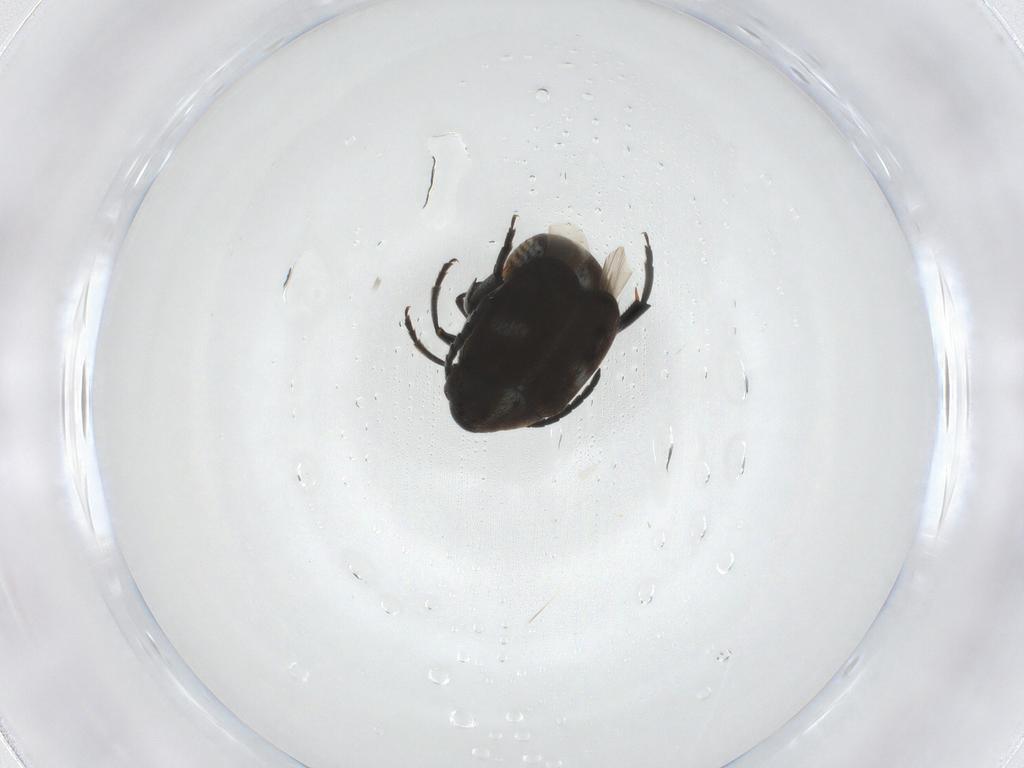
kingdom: Animalia
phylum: Arthropoda
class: Insecta
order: Coleoptera
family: Chrysomelidae
